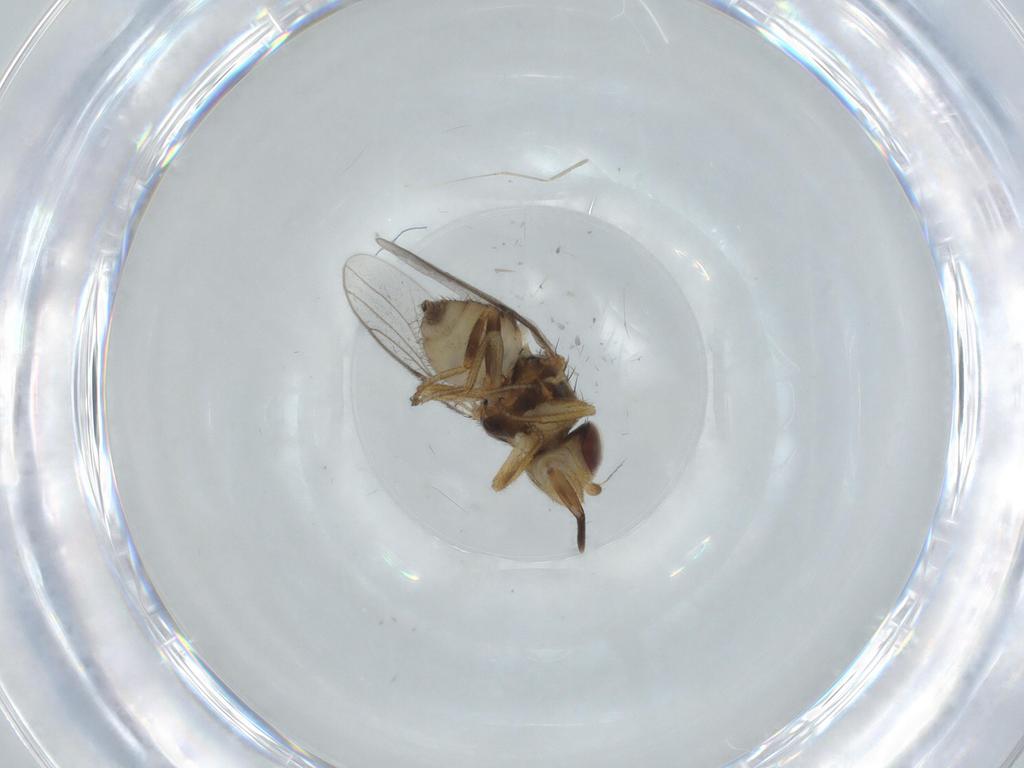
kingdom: Animalia
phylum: Arthropoda
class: Insecta
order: Diptera
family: Chloropidae
